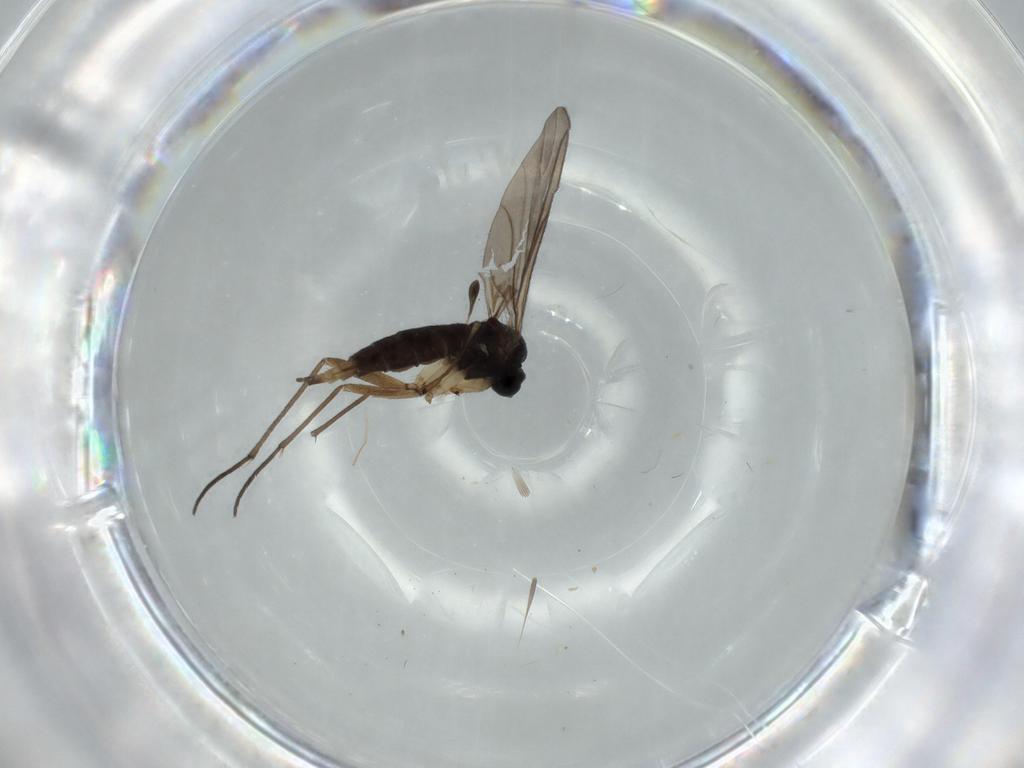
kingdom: Animalia
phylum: Arthropoda
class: Insecta
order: Diptera
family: Sciaridae
